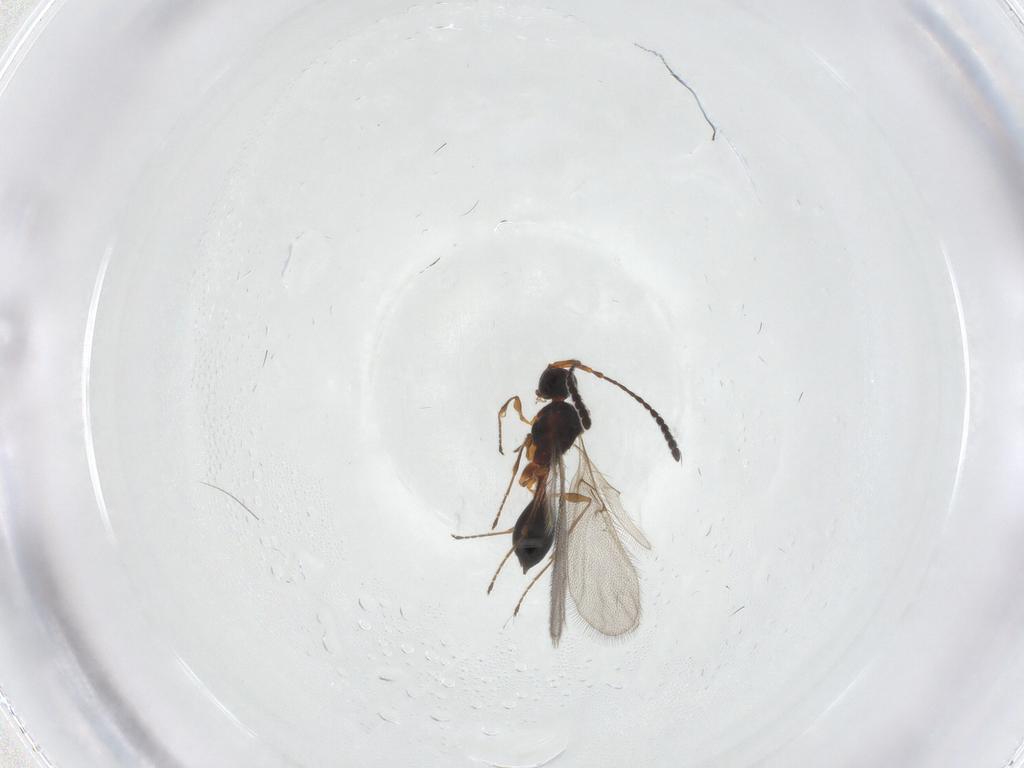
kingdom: Animalia
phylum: Arthropoda
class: Insecta
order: Hymenoptera
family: Diapriidae
